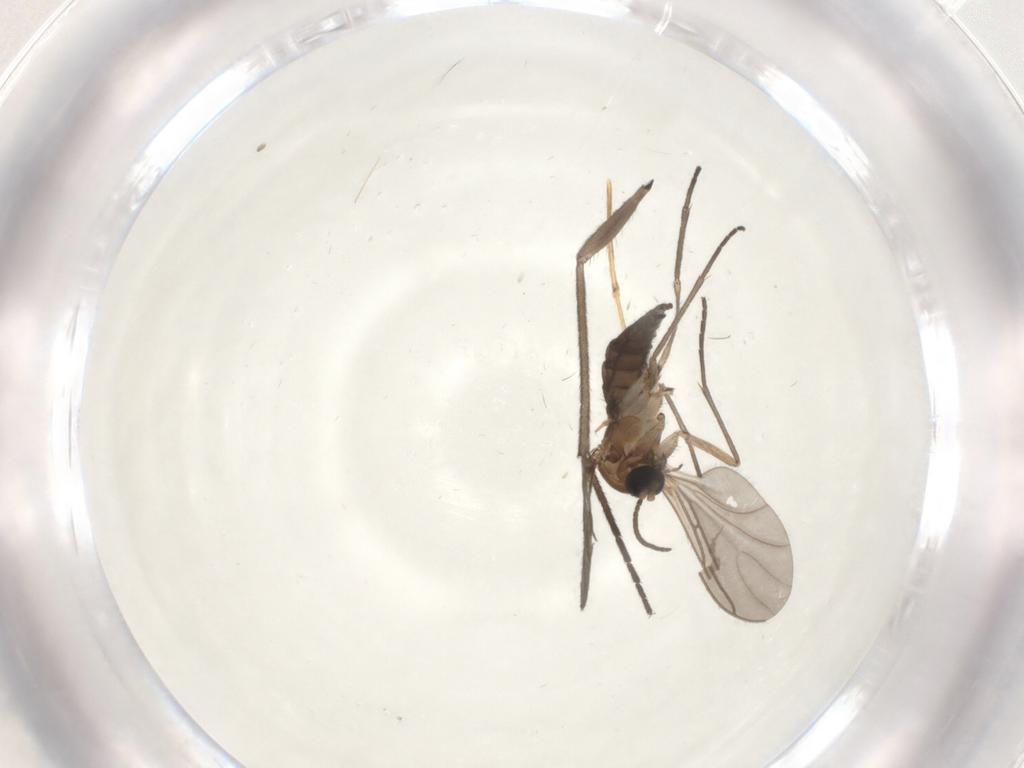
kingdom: Animalia
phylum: Arthropoda
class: Insecta
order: Diptera
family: Sciaridae
